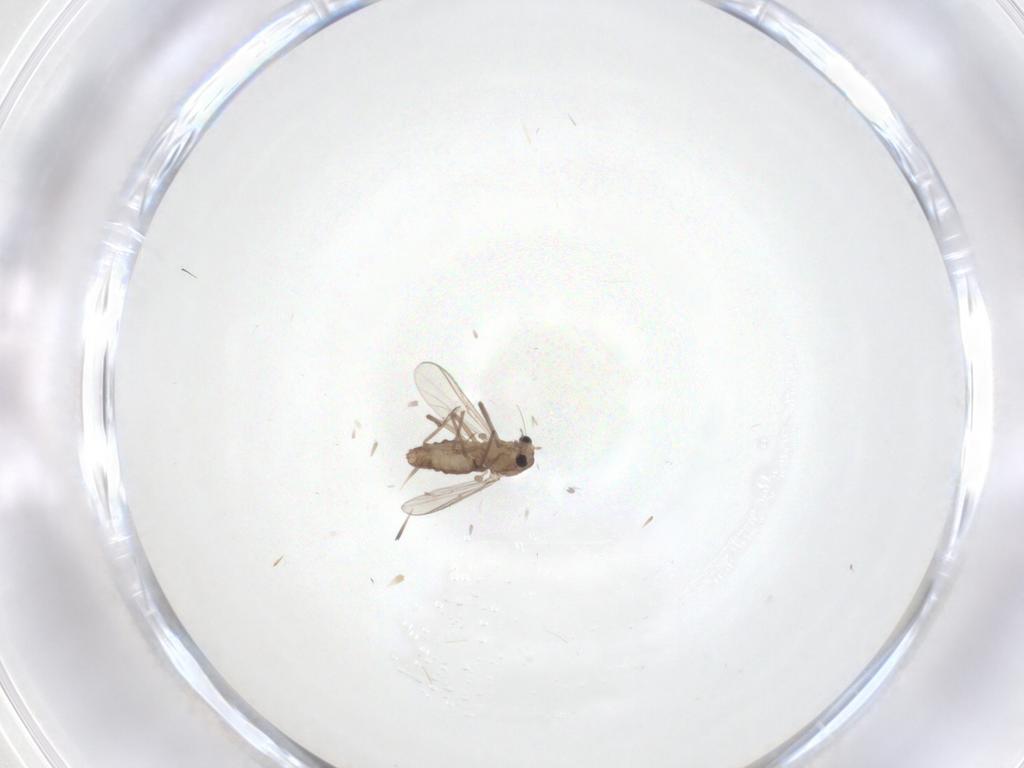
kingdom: Animalia
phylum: Arthropoda
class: Insecta
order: Diptera
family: Chironomidae
